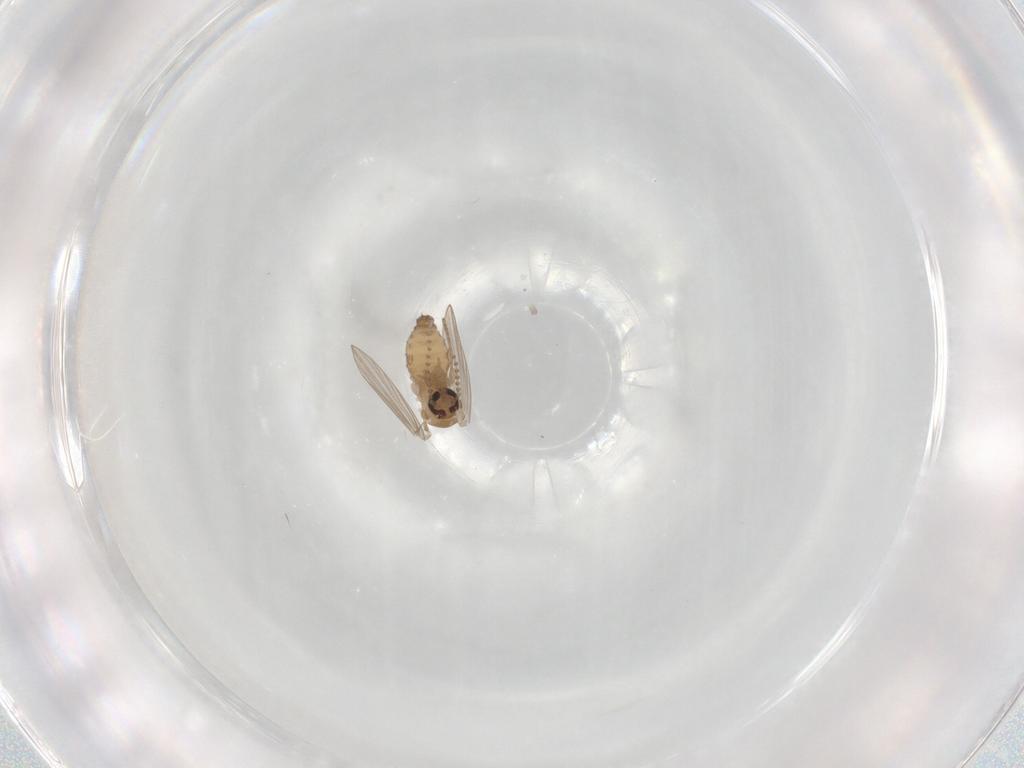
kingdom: Animalia
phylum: Arthropoda
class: Insecta
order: Diptera
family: Psychodidae
